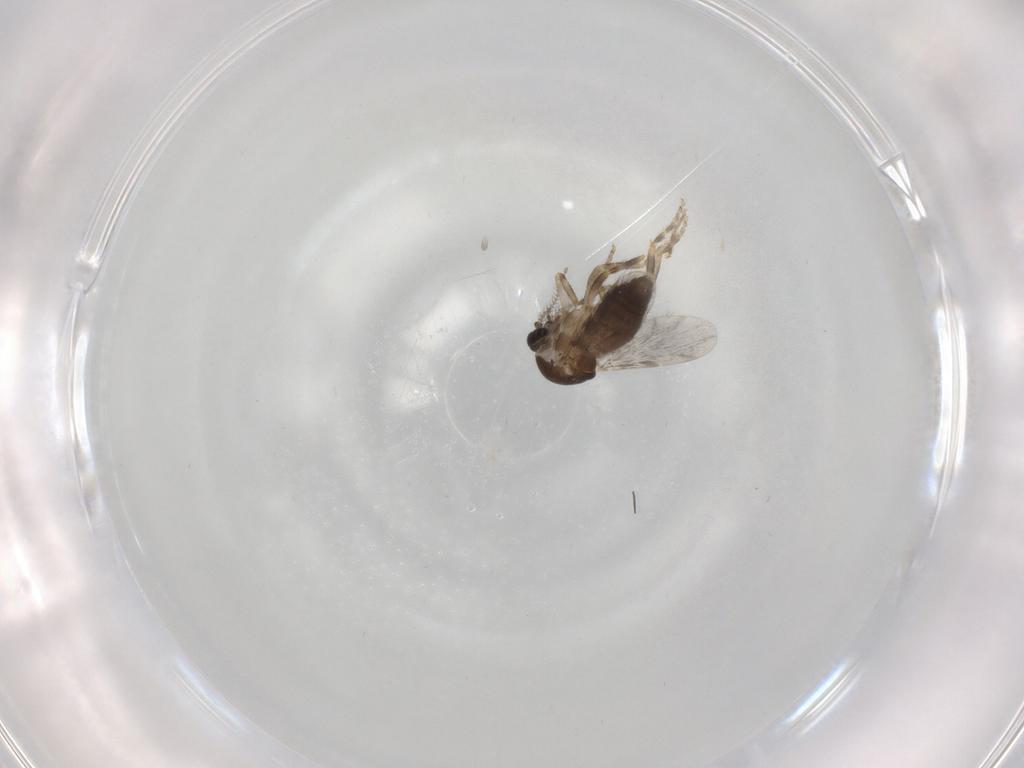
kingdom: Animalia
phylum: Arthropoda
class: Insecta
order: Diptera
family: Ceratopogonidae
